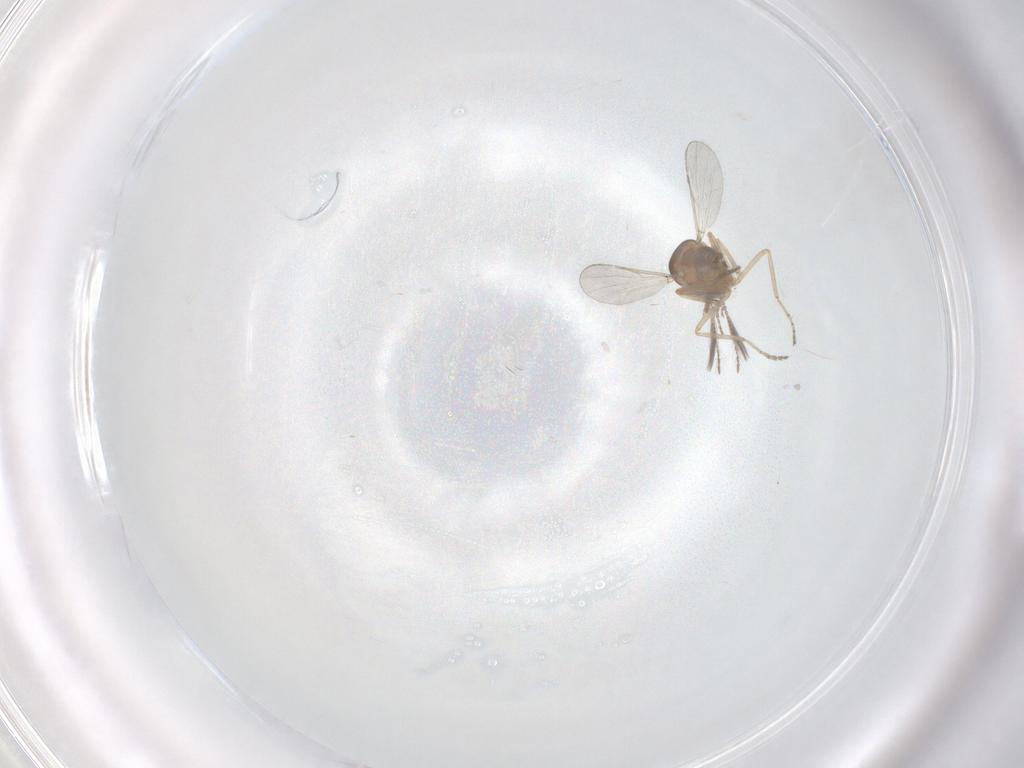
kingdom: Animalia
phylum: Arthropoda
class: Insecta
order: Diptera
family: Ceratopogonidae
